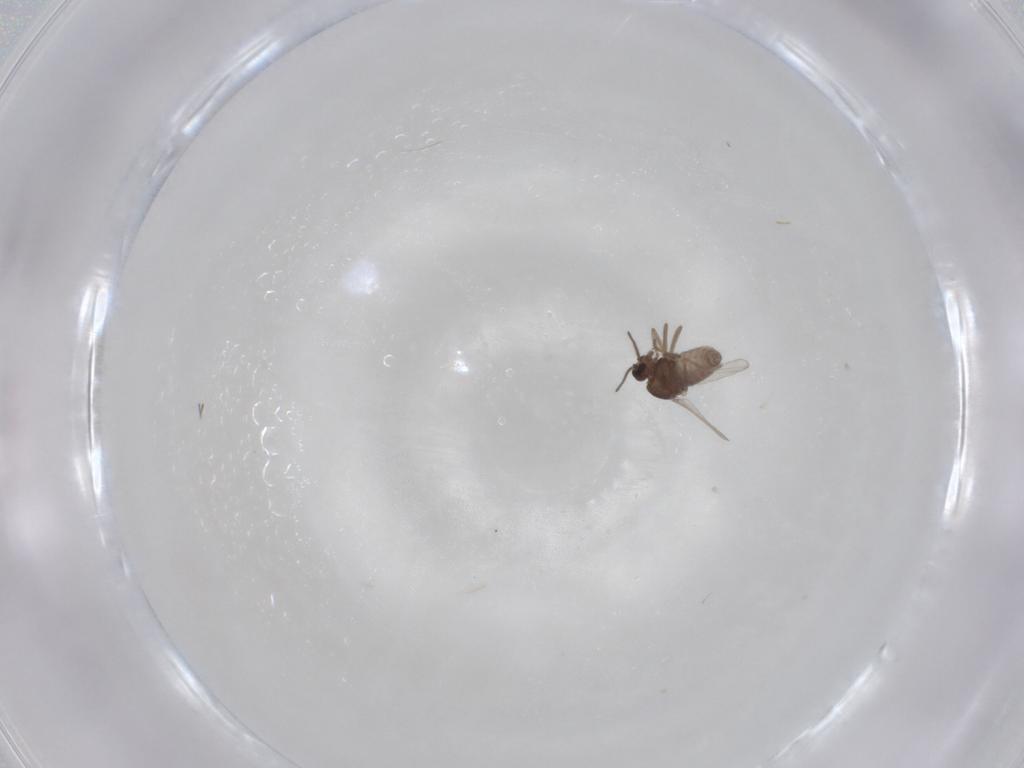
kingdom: Animalia
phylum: Arthropoda
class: Insecta
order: Diptera
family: Ceratopogonidae
